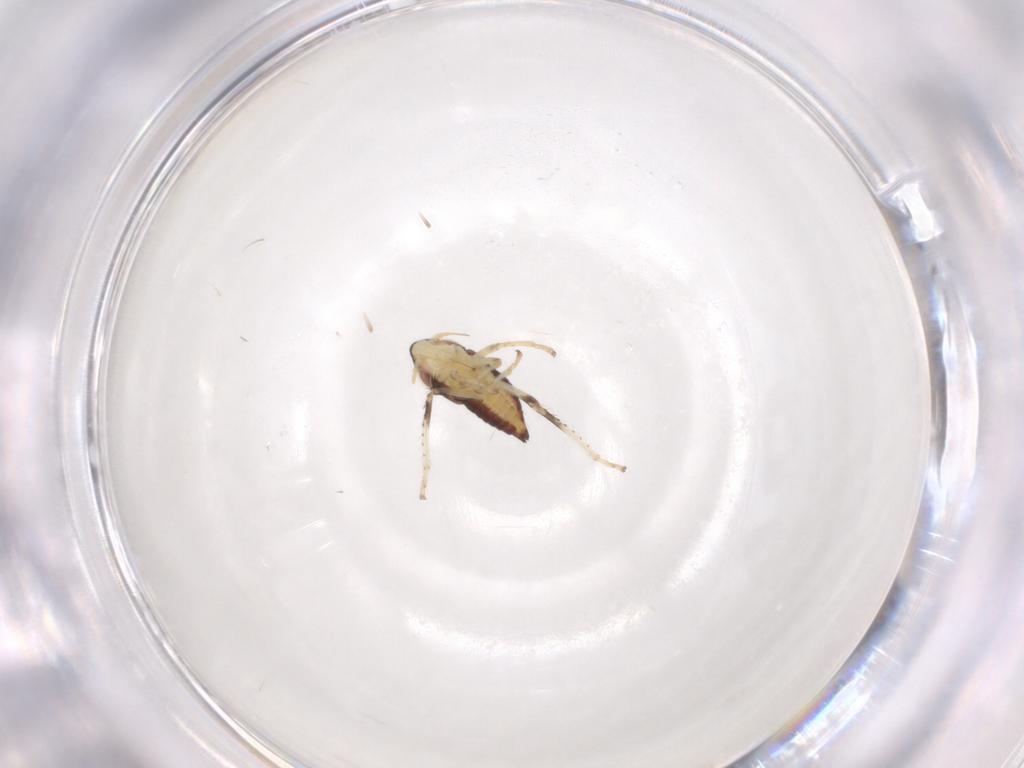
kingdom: Animalia
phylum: Arthropoda
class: Insecta
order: Hemiptera
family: Cicadellidae
